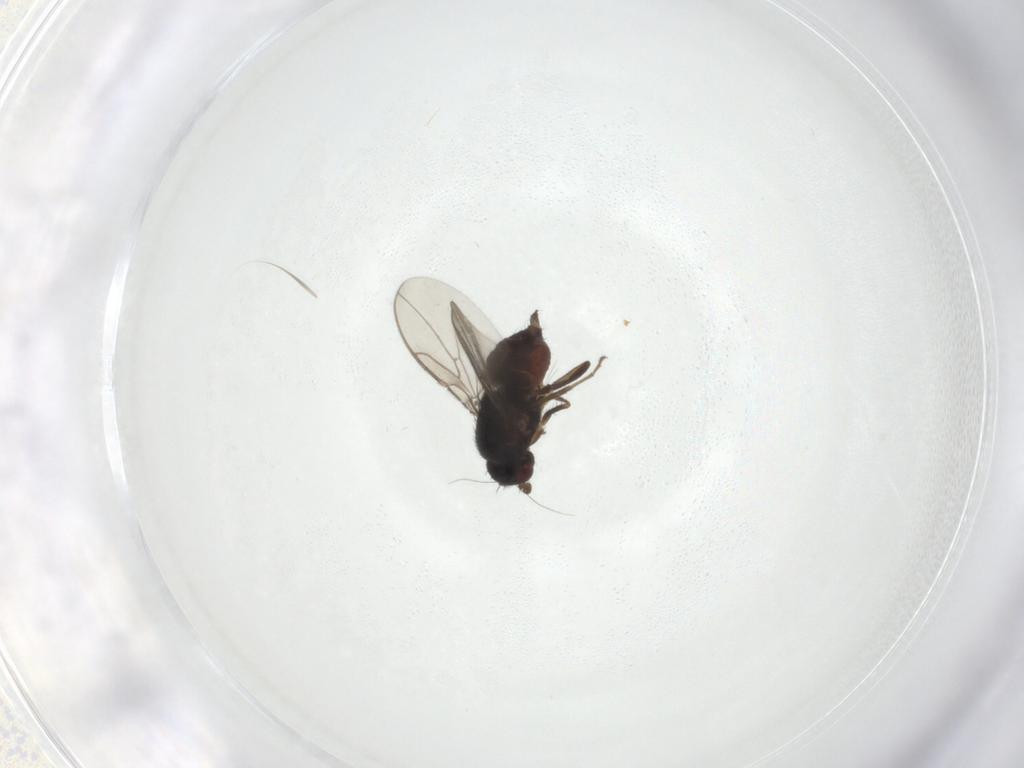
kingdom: Animalia
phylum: Arthropoda
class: Insecta
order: Diptera
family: Sphaeroceridae
